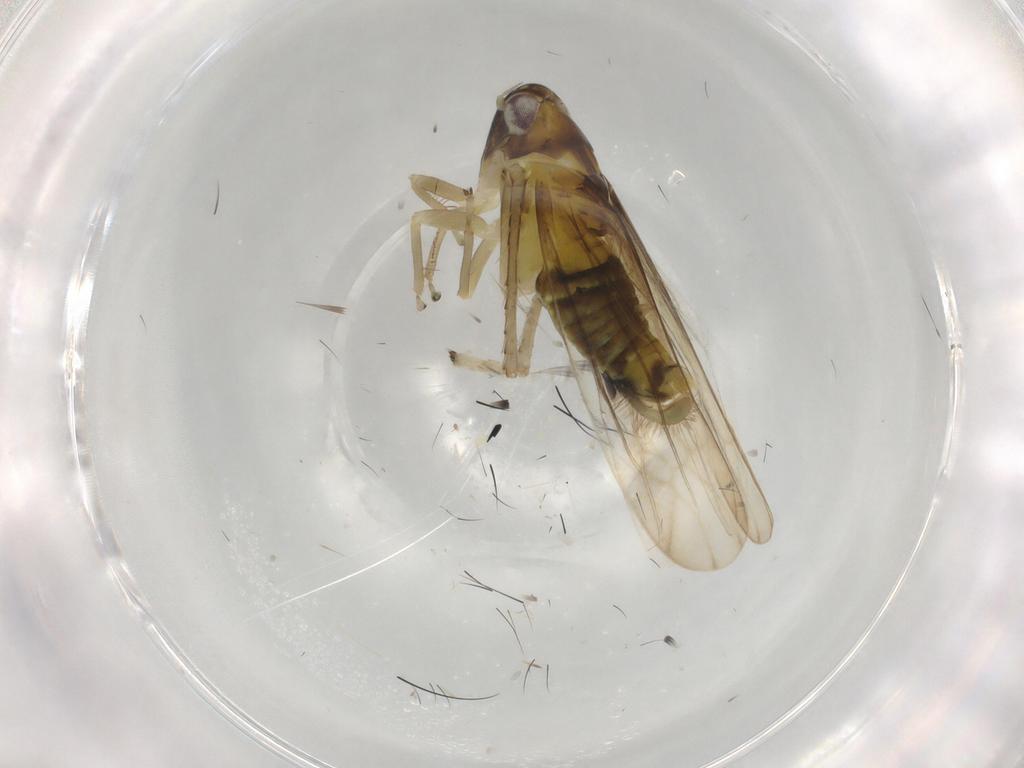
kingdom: Animalia
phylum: Arthropoda
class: Insecta
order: Hemiptera
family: Cicadellidae
